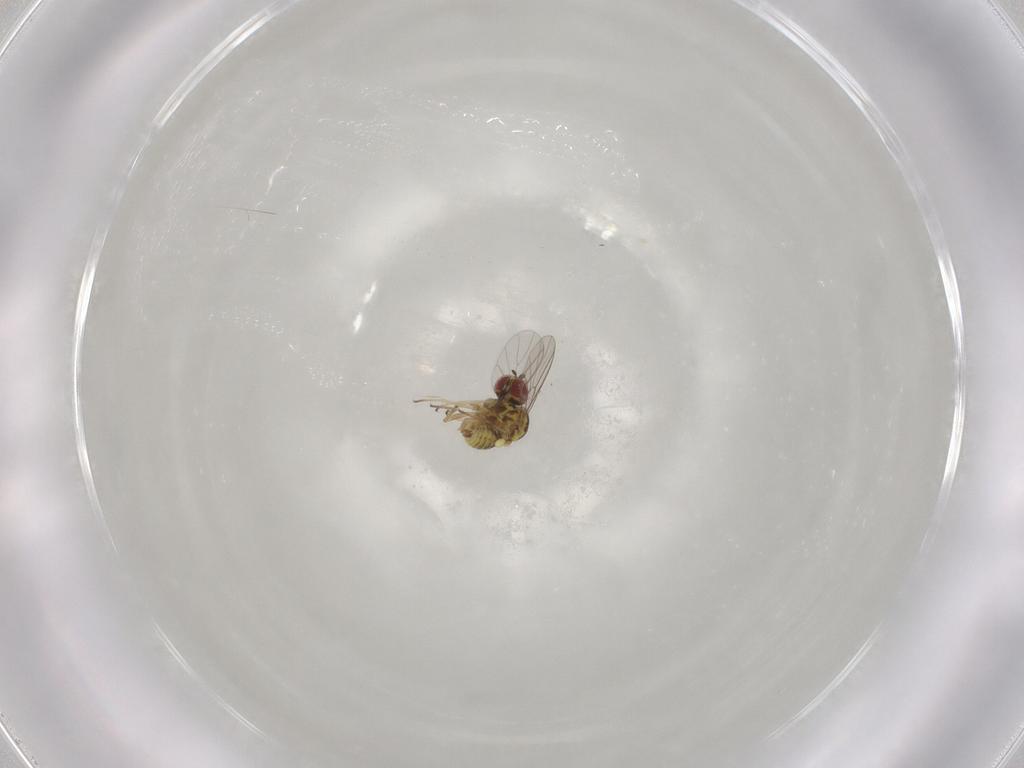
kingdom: Animalia
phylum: Arthropoda
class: Insecta
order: Diptera
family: Mythicomyiidae
